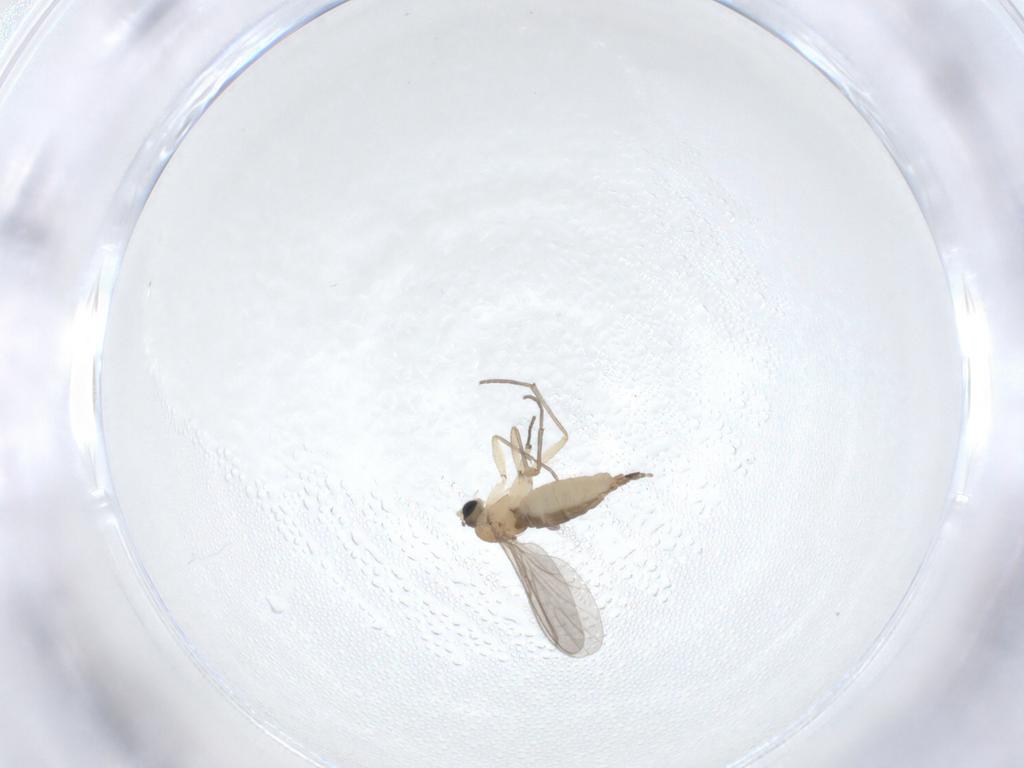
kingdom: Animalia
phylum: Arthropoda
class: Insecta
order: Diptera
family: Sciaridae
